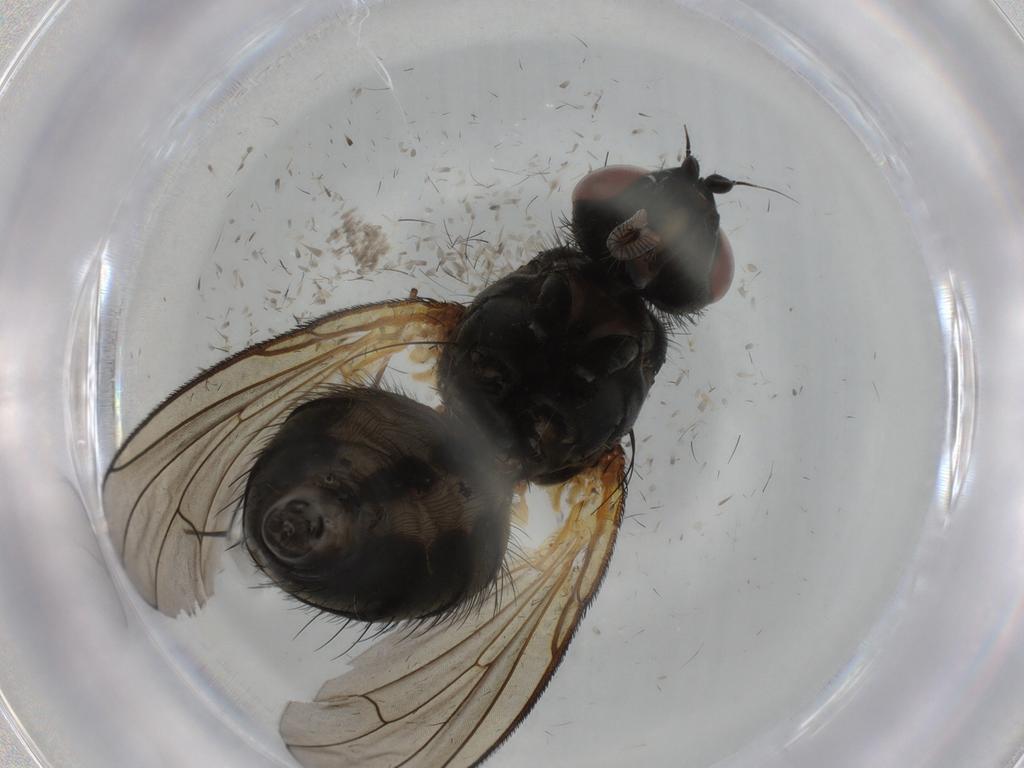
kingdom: Animalia
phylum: Arthropoda
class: Insecta
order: Diptera
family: Anthomyiidae
